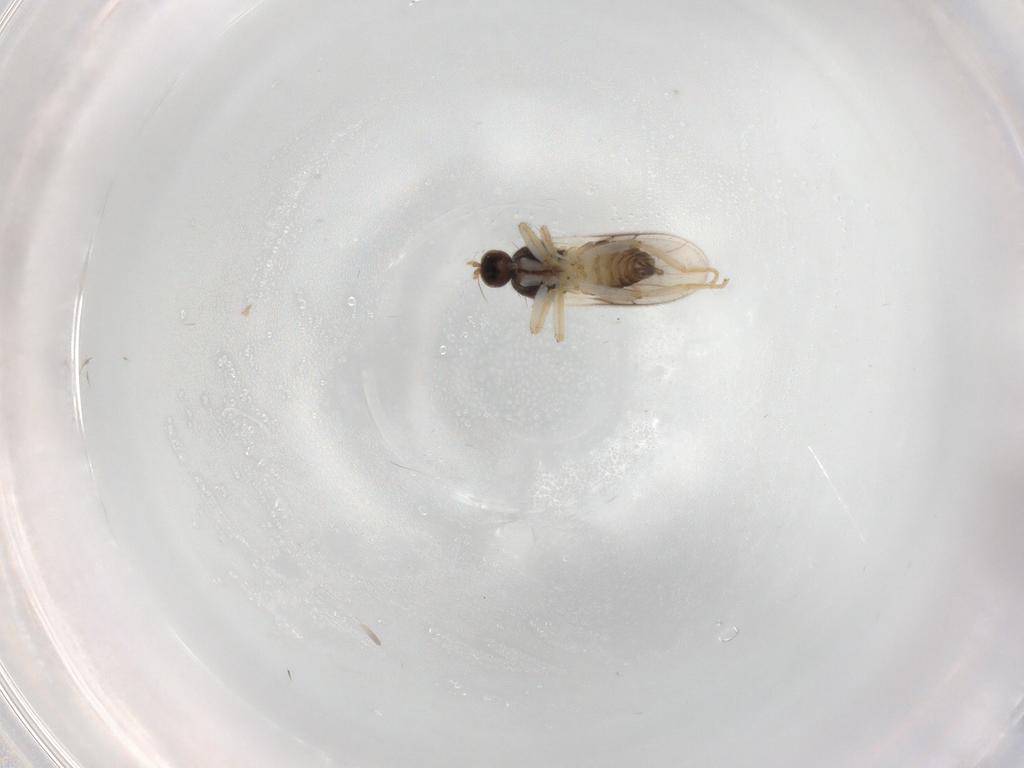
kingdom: Animalia
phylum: Arthropoda
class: Insecta
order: Diptera
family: Hybotidae
